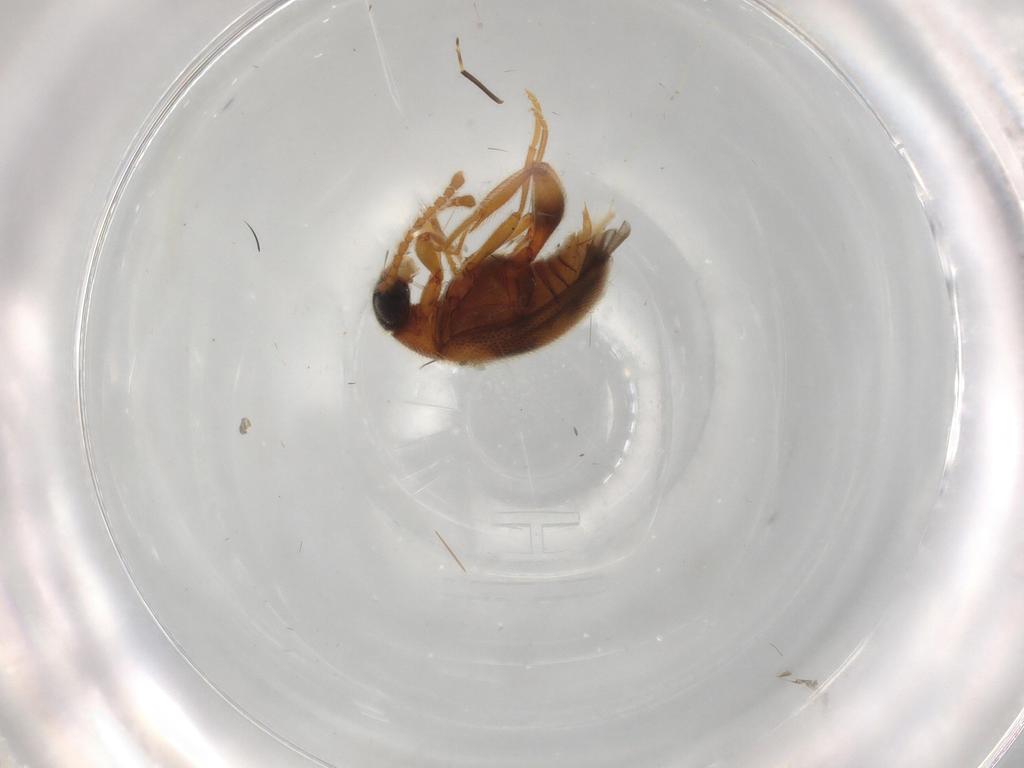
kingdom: Animalia
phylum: Arthropoda
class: Insecta
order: Coleoptera
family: Aderidae
